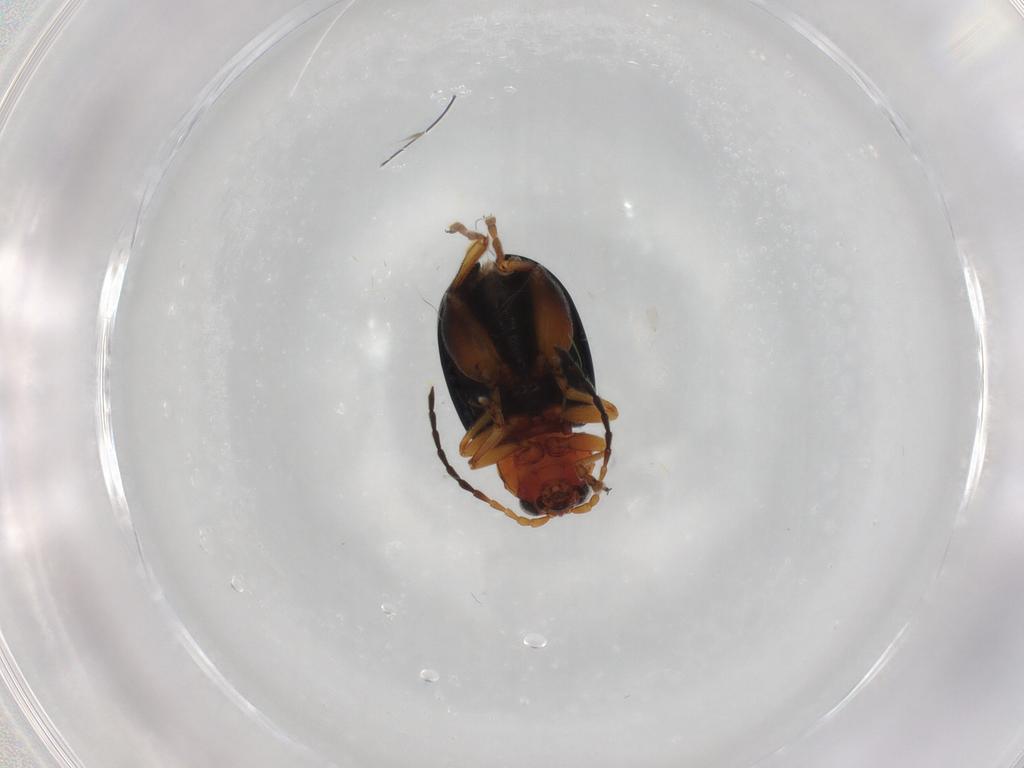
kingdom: Animalia
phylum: Arthropoda
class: Insecta
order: Coleoptera
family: Chrysomelidae
